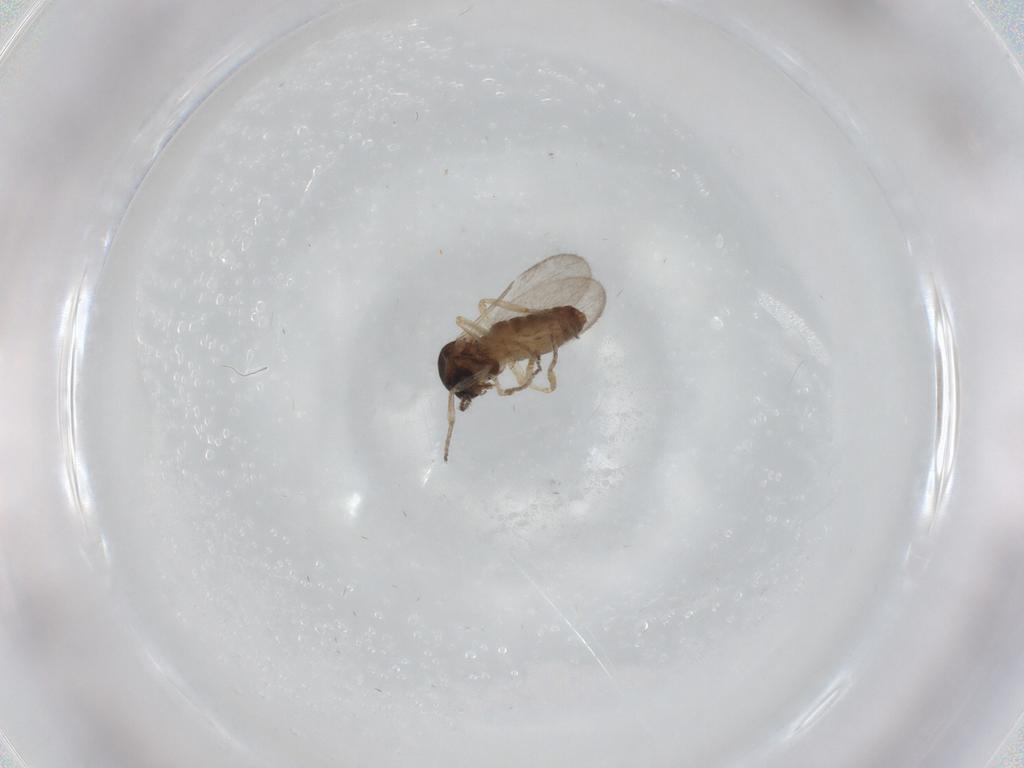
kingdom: Animalia
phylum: Arthropoda
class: Insecta
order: Diptera
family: Ceratopogonidae
